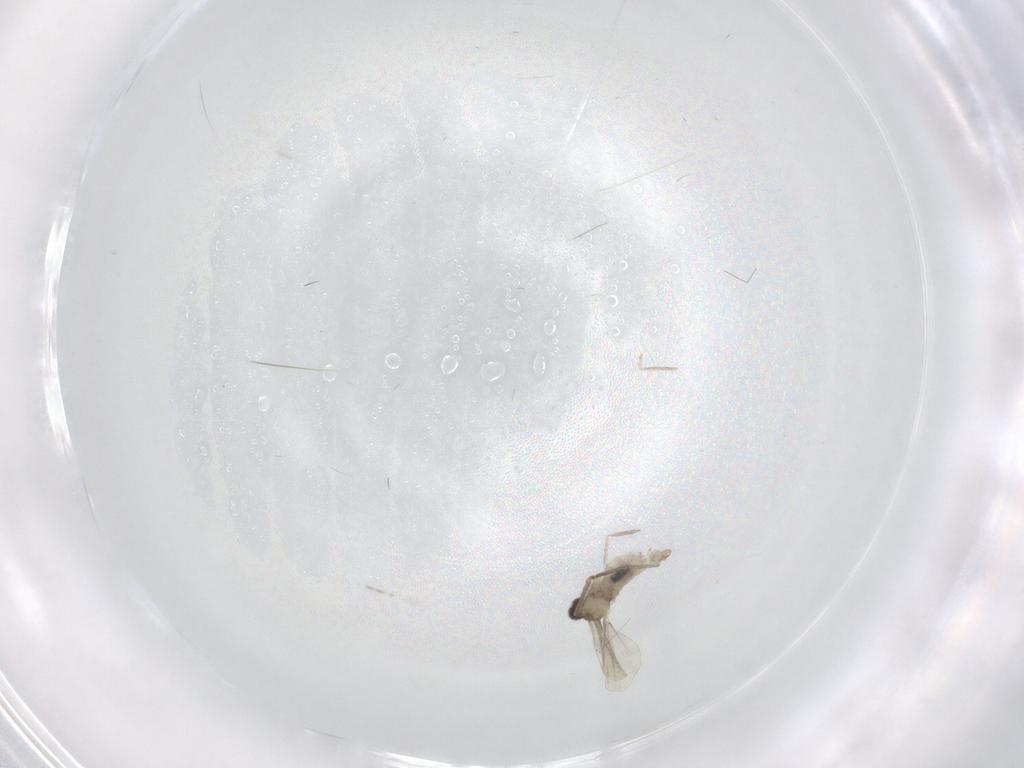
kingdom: Animalia
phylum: Arthropoda
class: Insecta
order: Diptera
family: Cecidomyiidae
